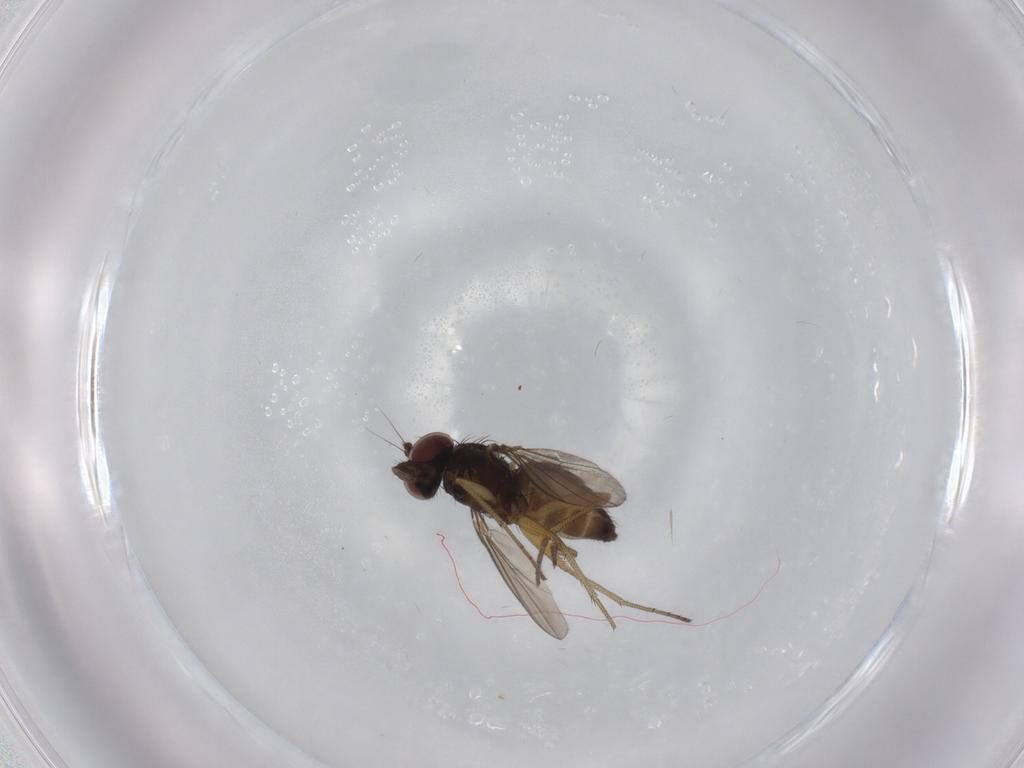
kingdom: Animalia
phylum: Arthropoda
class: Insecta
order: Diptera
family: Dolichopodidae
